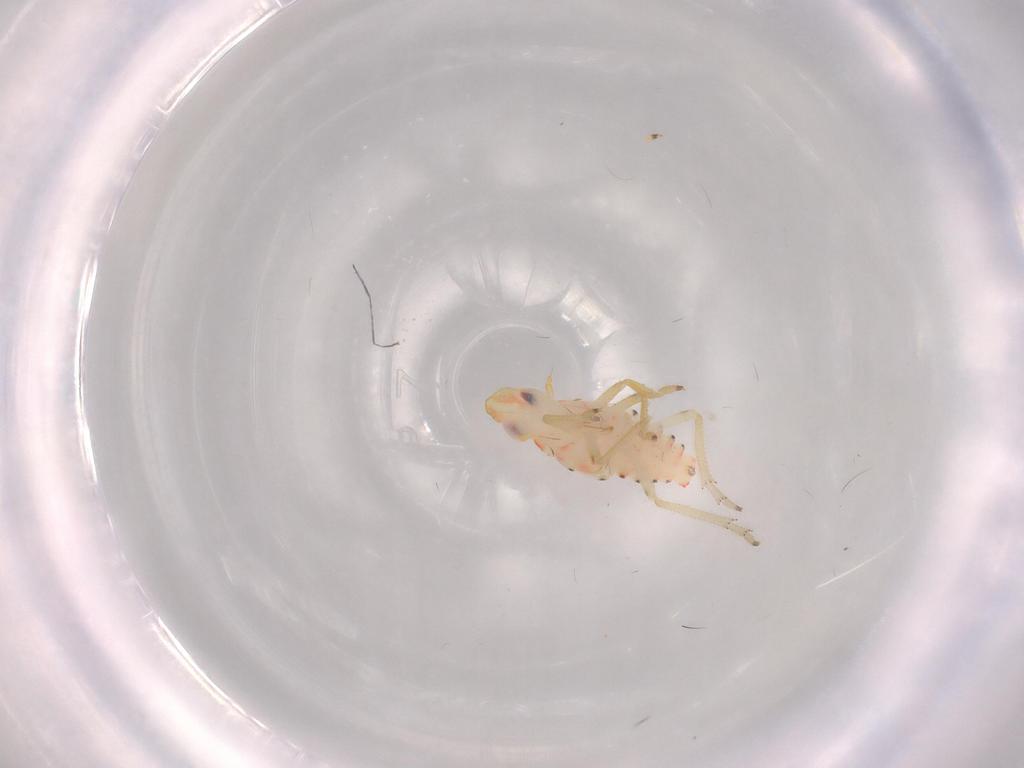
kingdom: Animalia
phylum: Arthropoda
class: Insecta
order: Hemiptera
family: Tropiduchidae
